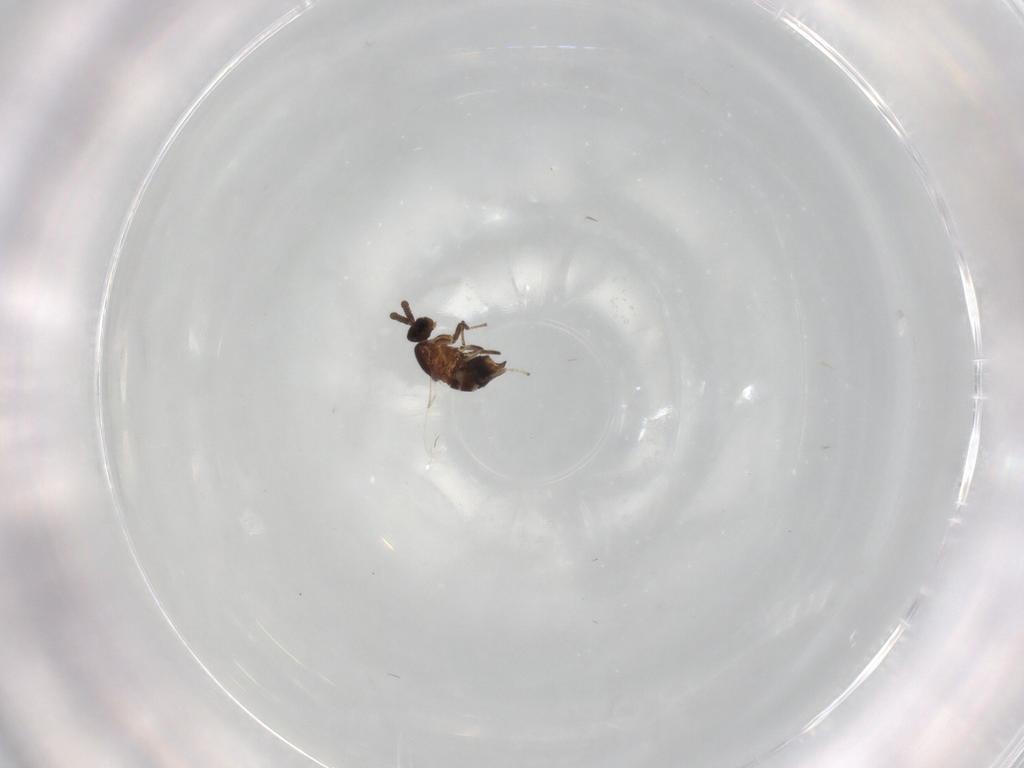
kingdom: Animalia
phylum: Arthropoda
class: Insecta
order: Diptera
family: Scatopsidae
